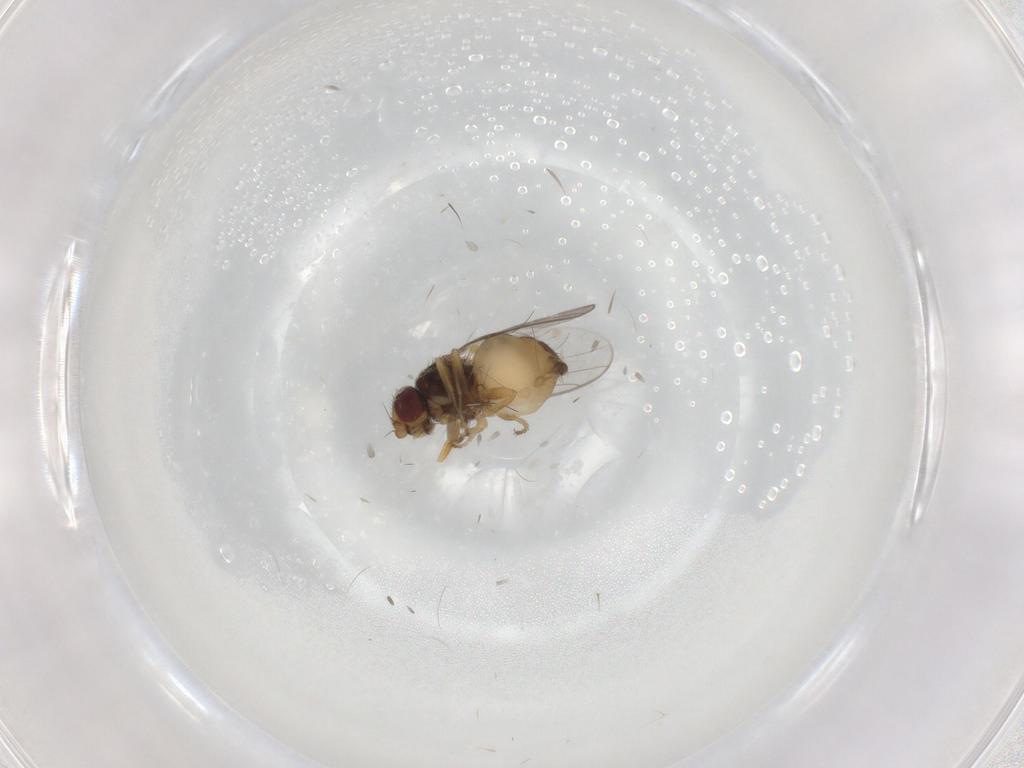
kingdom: Animalia
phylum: Arthropoda
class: Insecta
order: Diptera
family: Chloropidae
